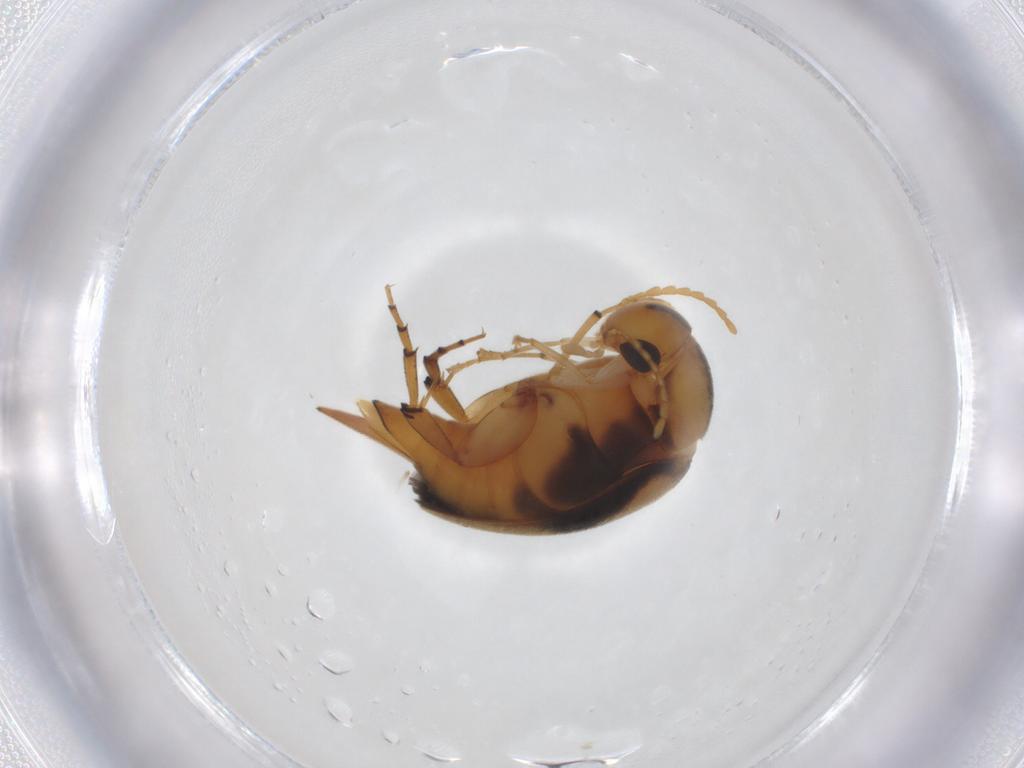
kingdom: Animalia
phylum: Arthropoda
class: Insecta
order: Coleoptera
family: Mordellidae
